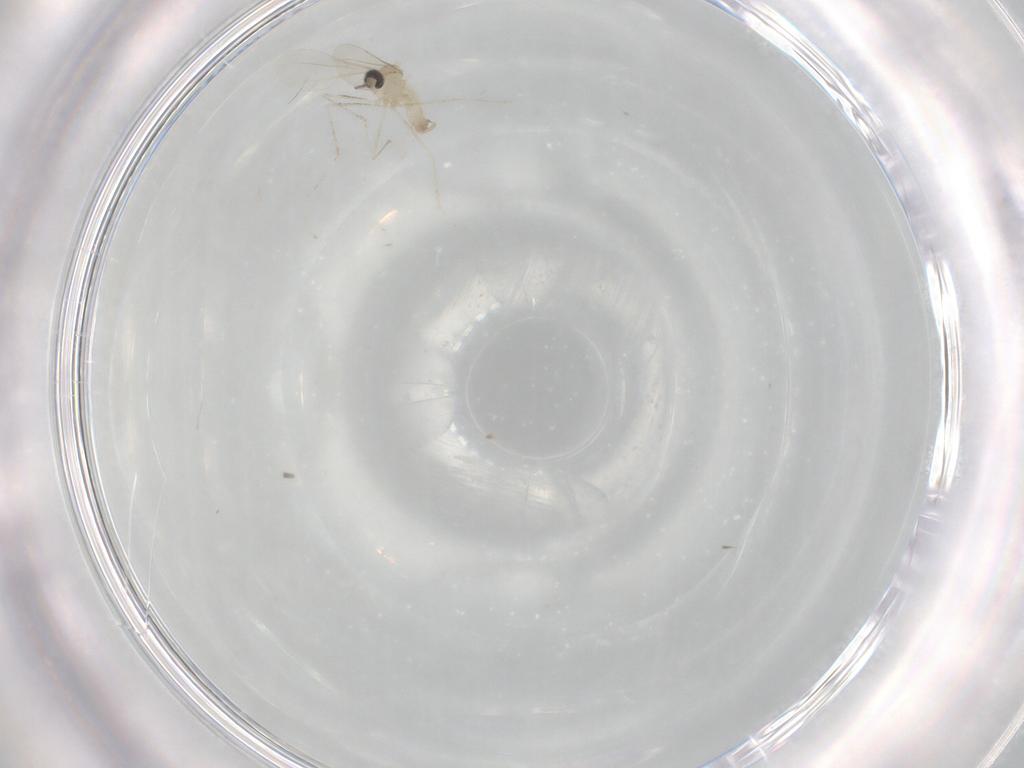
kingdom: Animalia
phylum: Arthropoda
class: Insecta
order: Diptera
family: Cecidomyiidae
